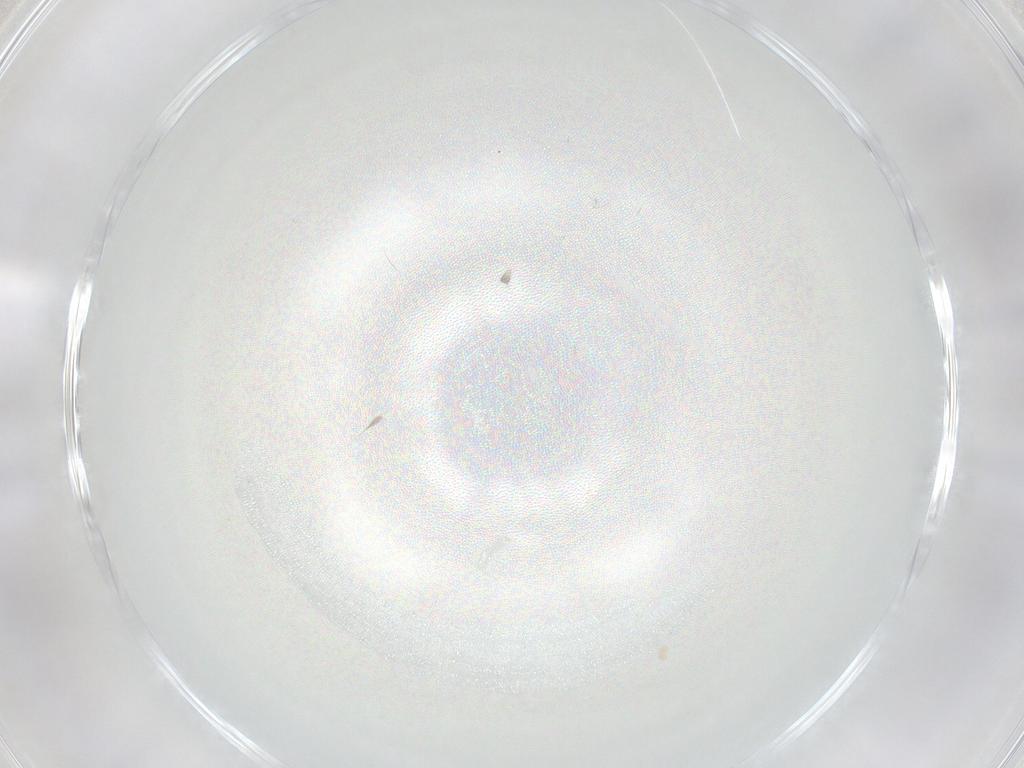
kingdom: Animalia
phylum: Arthropoda
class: Insecta
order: Diptera
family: Cecidomyiidae
